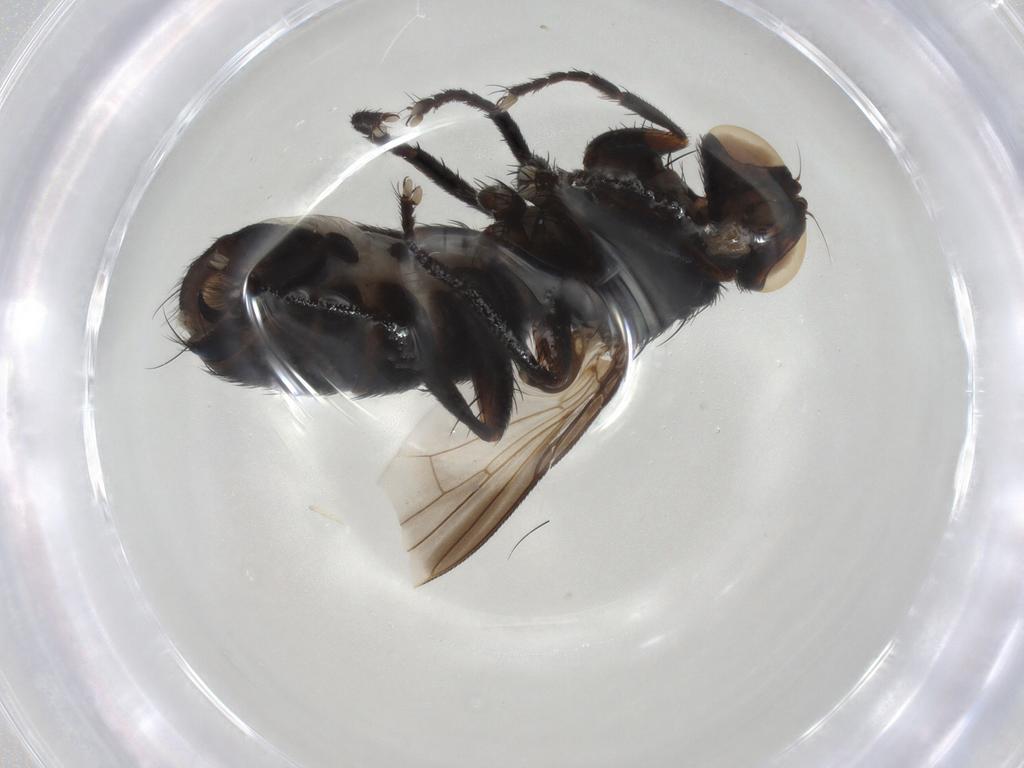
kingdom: Animalia
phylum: Arthropoda
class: Insecta
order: Diptera
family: Tachinidae
